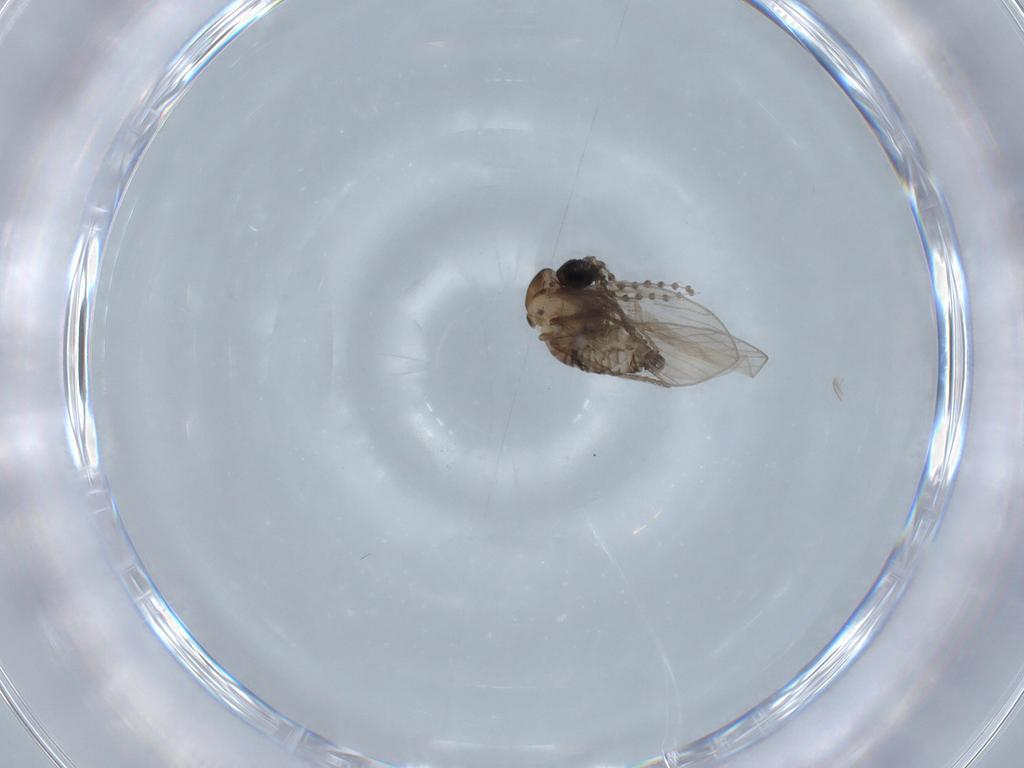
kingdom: Animalia
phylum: Arthropoda
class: Insecta
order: Diptera
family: Psychodidae
